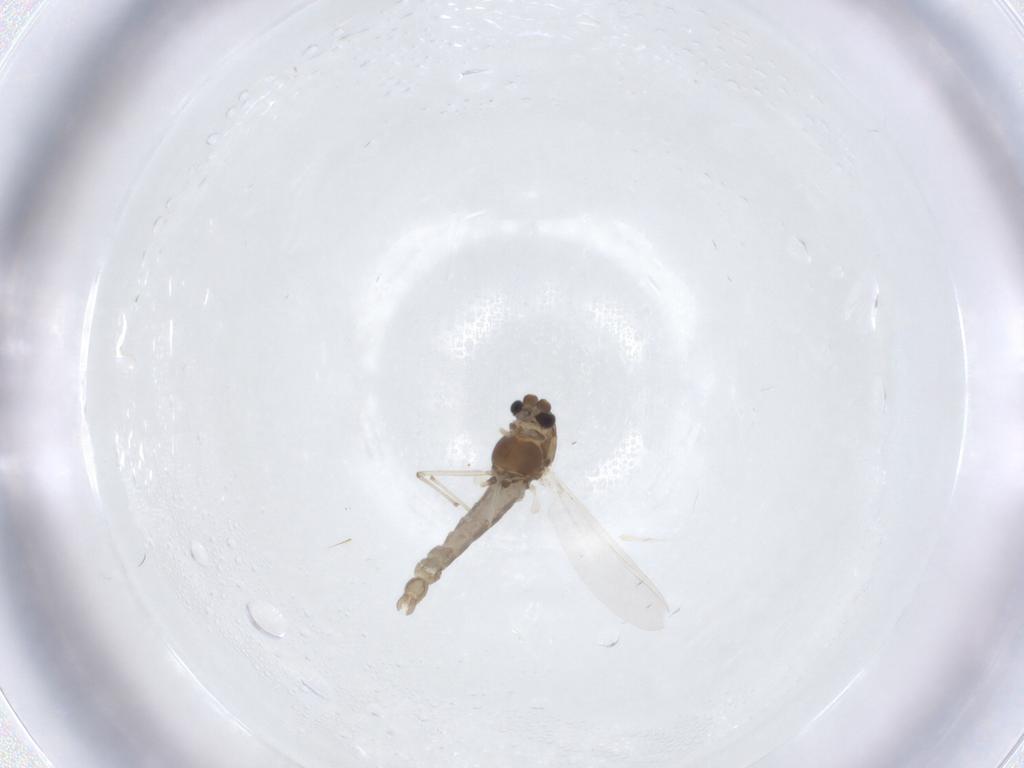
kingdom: Animalia
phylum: Arthropoda
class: Insecta
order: Diptera
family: Chironomidae
